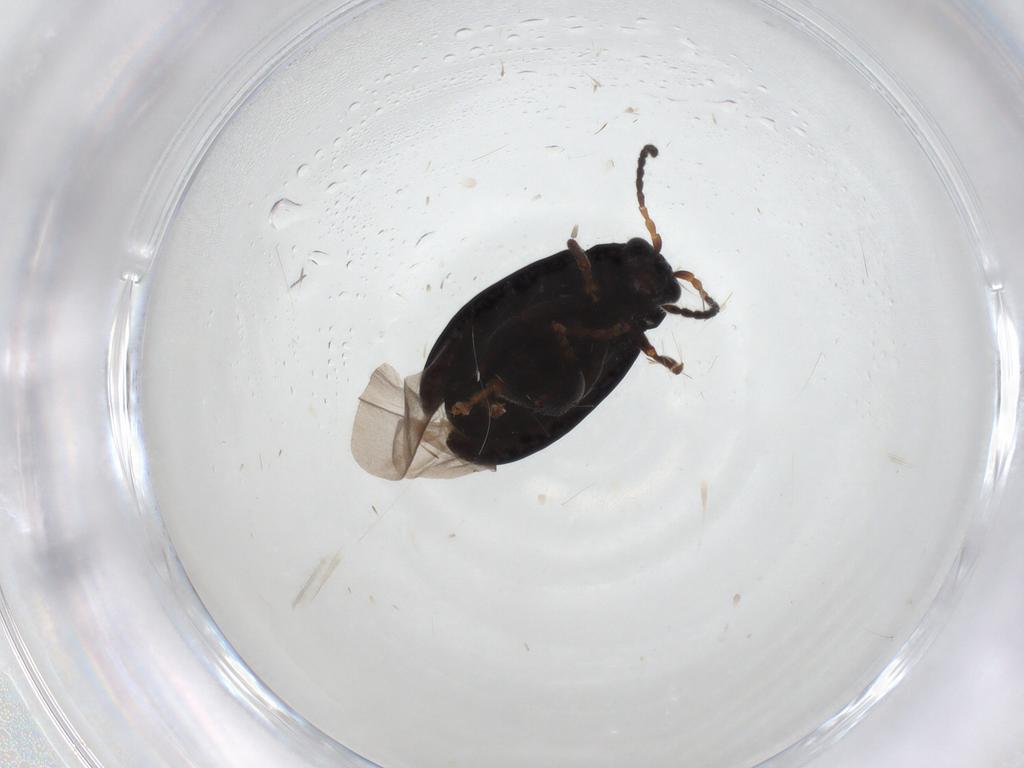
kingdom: Animalia
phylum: Arthropoda
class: Insecta
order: Coleoptera
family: Chrysomelidae
